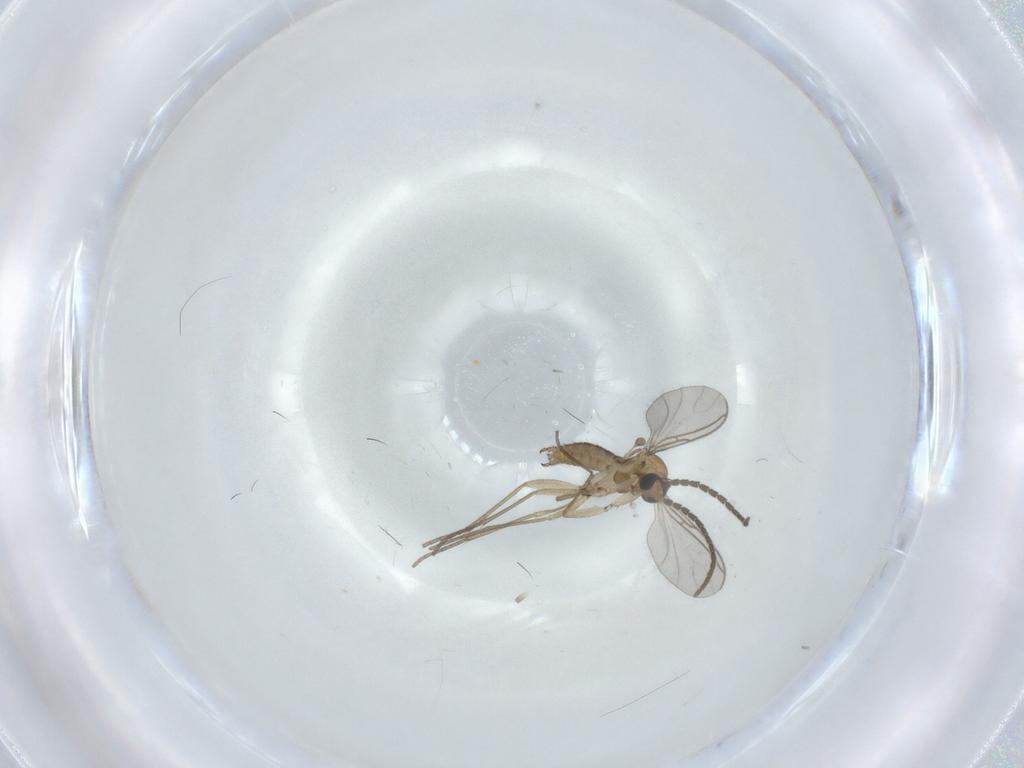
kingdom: Animalia
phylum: Arthropoda
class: Insecta
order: Diptera
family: Sciaridae
